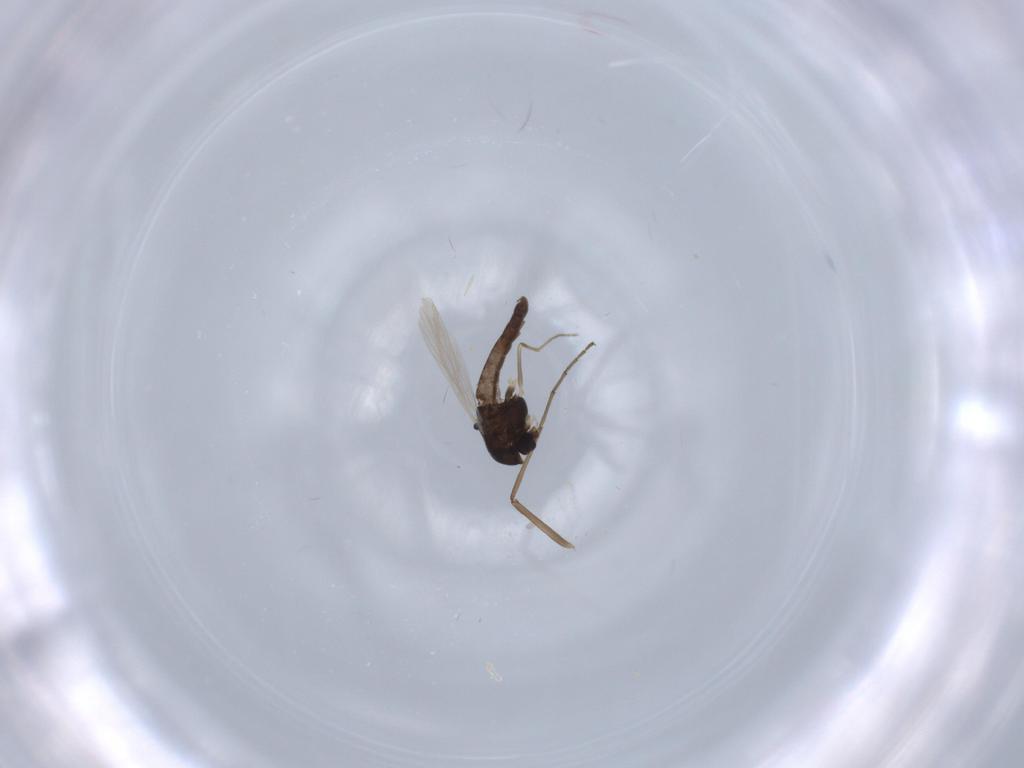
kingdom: Animalia
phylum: Arthropoda
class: Insecta
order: Diptera
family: Chironomidae
